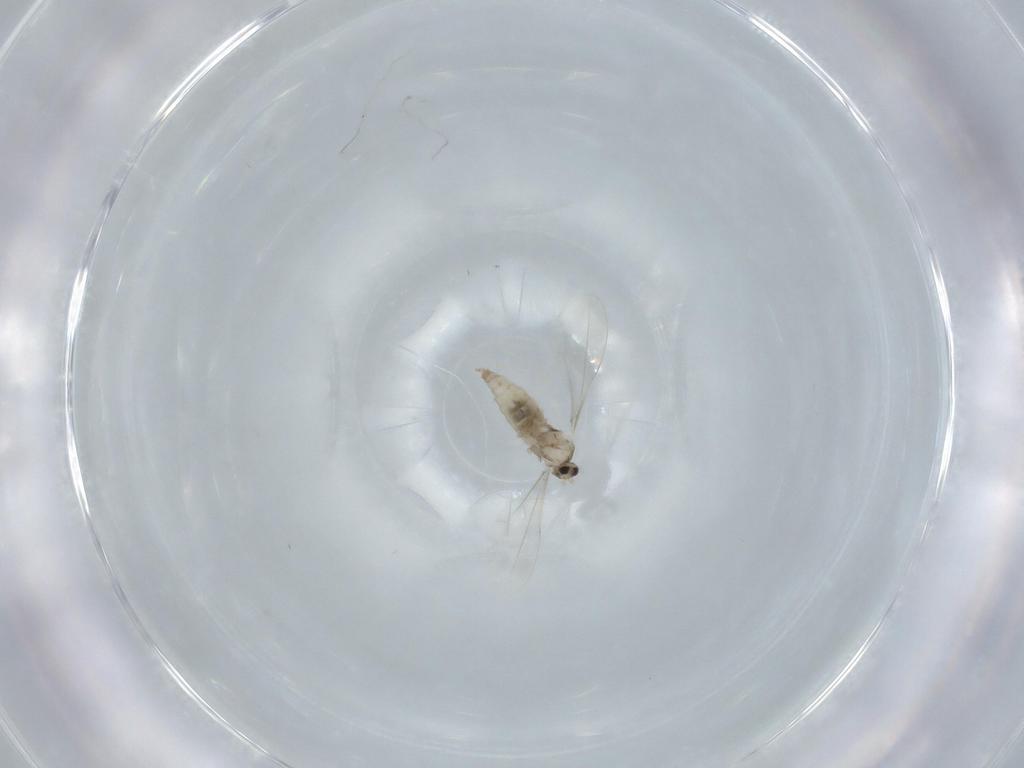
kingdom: Animalia
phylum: Arthropoda
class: Insecta
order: Diptera
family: Cecidomyiidae
